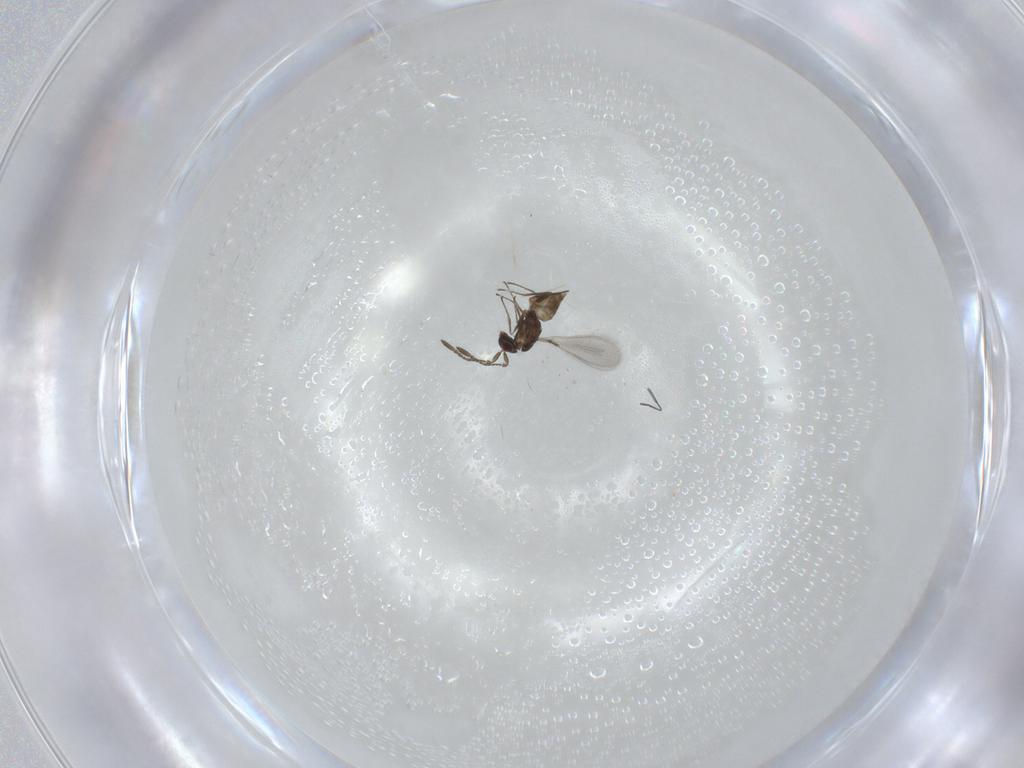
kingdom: Animalia
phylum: Arthropoda
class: Insecta
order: Hymenoptera
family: Mymaridae
